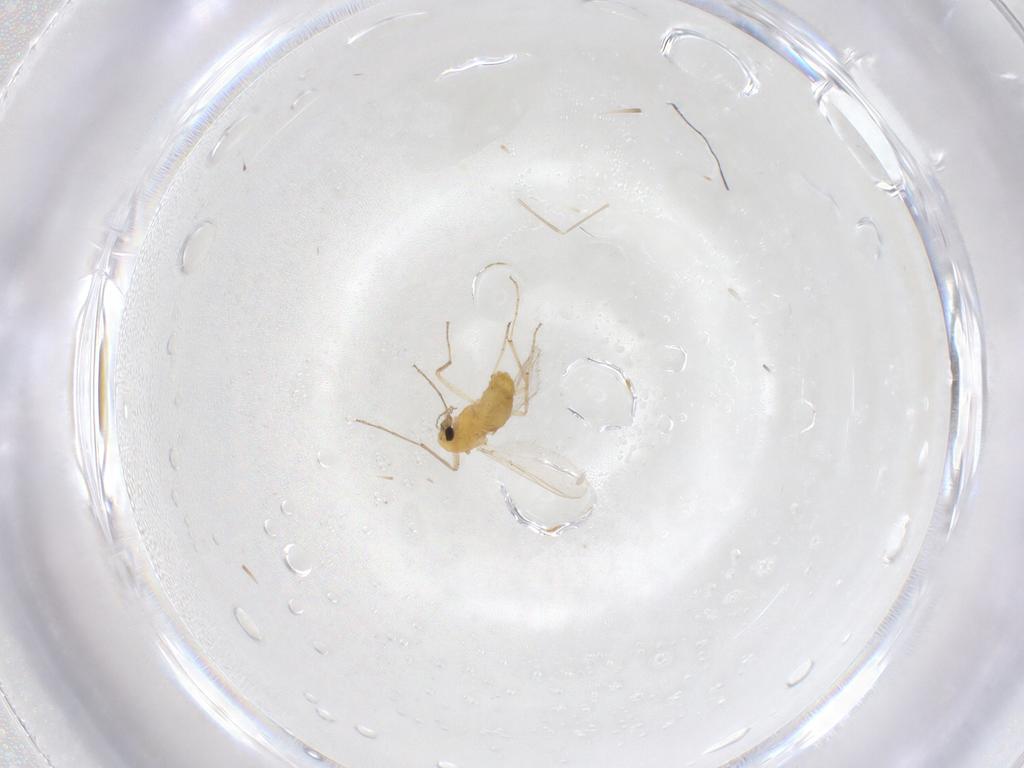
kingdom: Animalia
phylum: Arthropoda
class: Insecta
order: Diptera
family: Chironomidae
